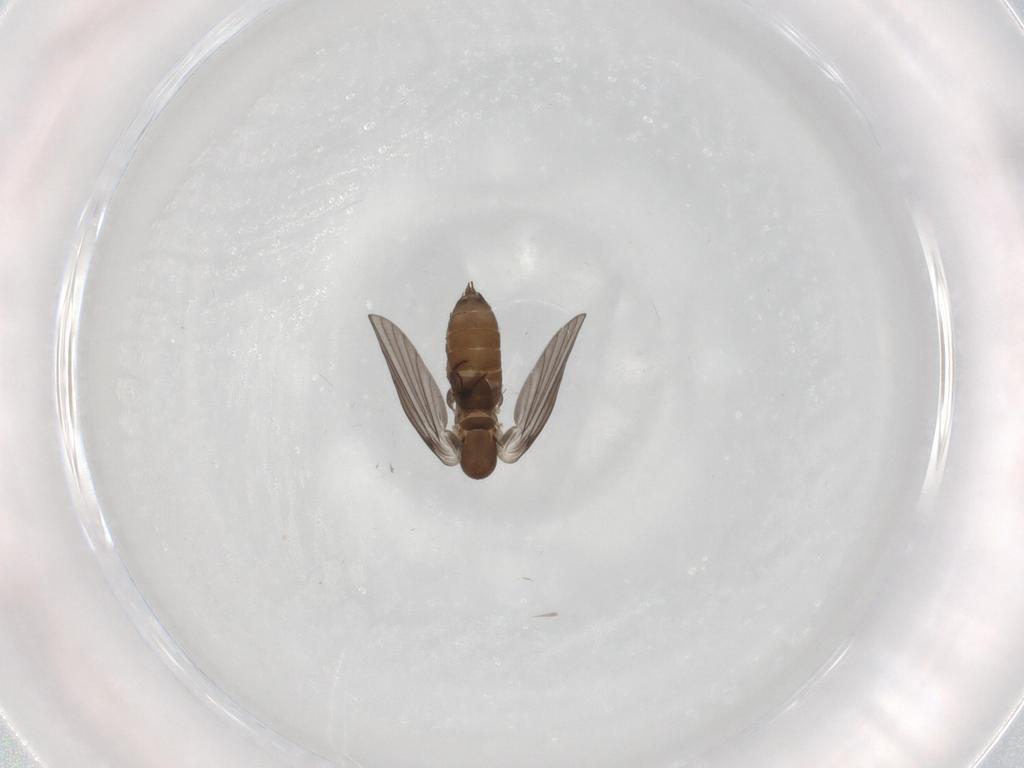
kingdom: Animalia
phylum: Arthropoda
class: Insecta
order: Diptera
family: Psychodidae
